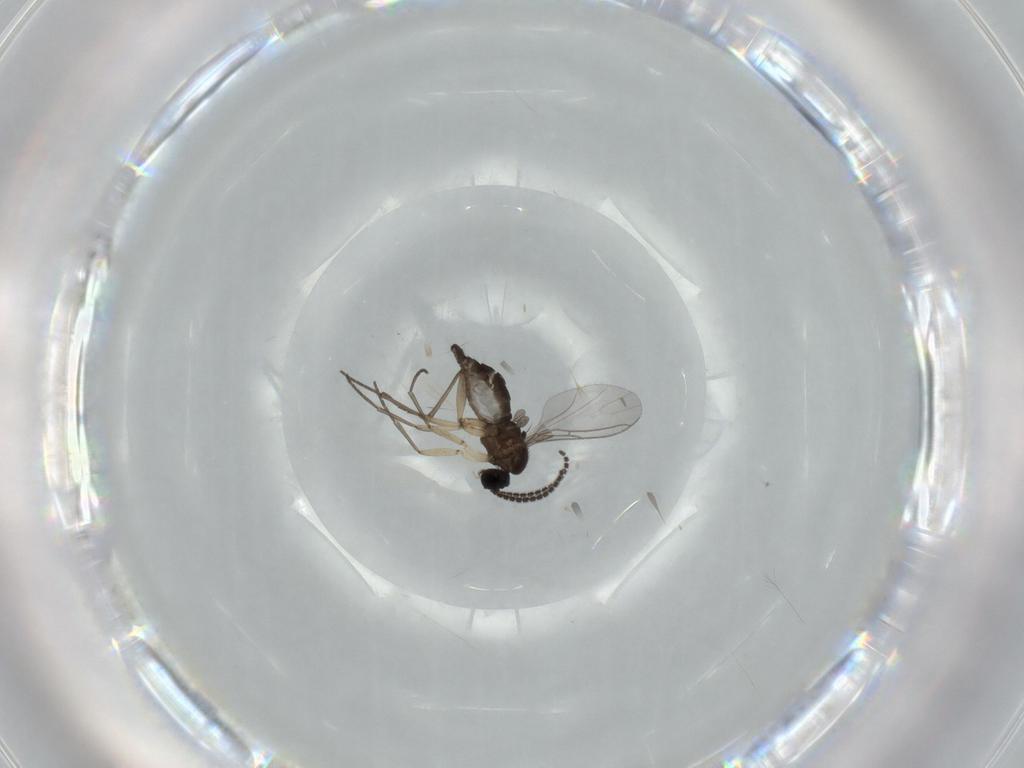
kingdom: Animalia
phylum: Arthropoda
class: Insecta
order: Diptera
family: Sciaridae
